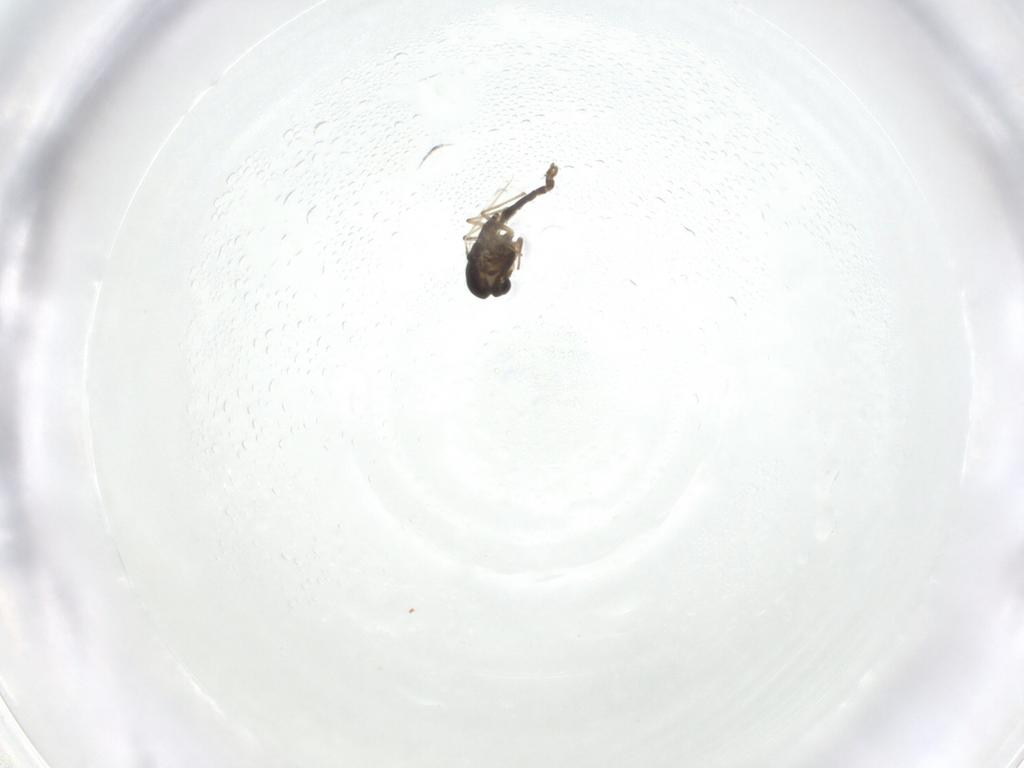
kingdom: Animalia
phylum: Arthropoda
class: Insecta
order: Diptera
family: Chironomidae
